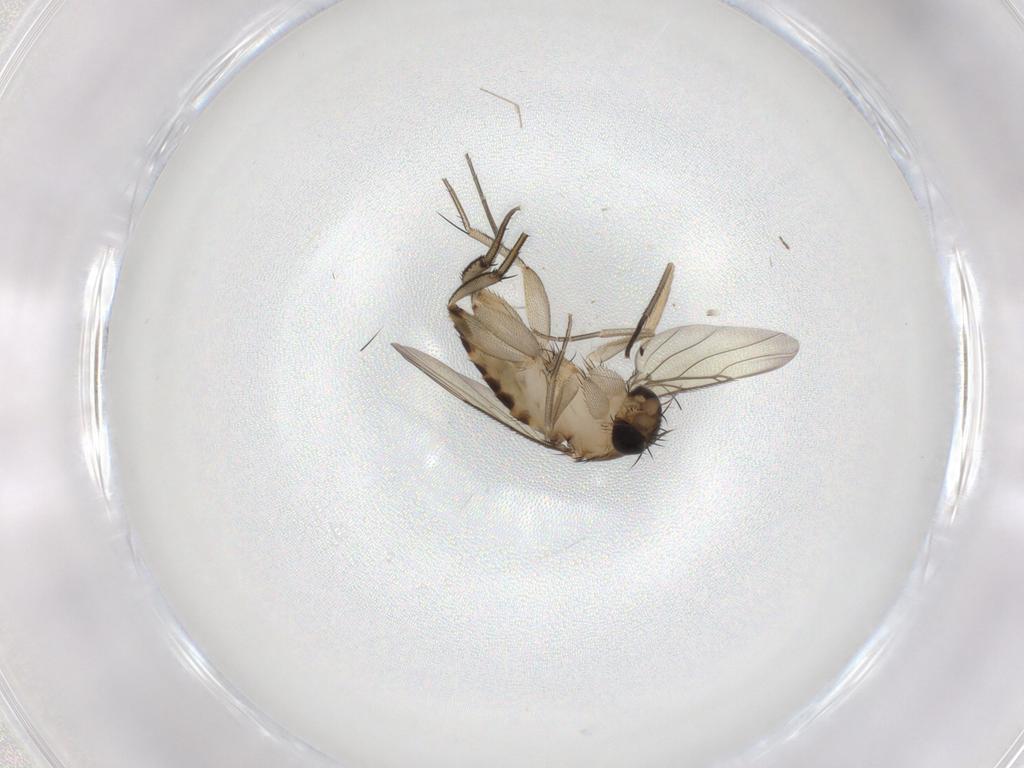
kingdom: Animalia
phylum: Arthropoda
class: Insecta
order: Diptera
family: Phoridae
